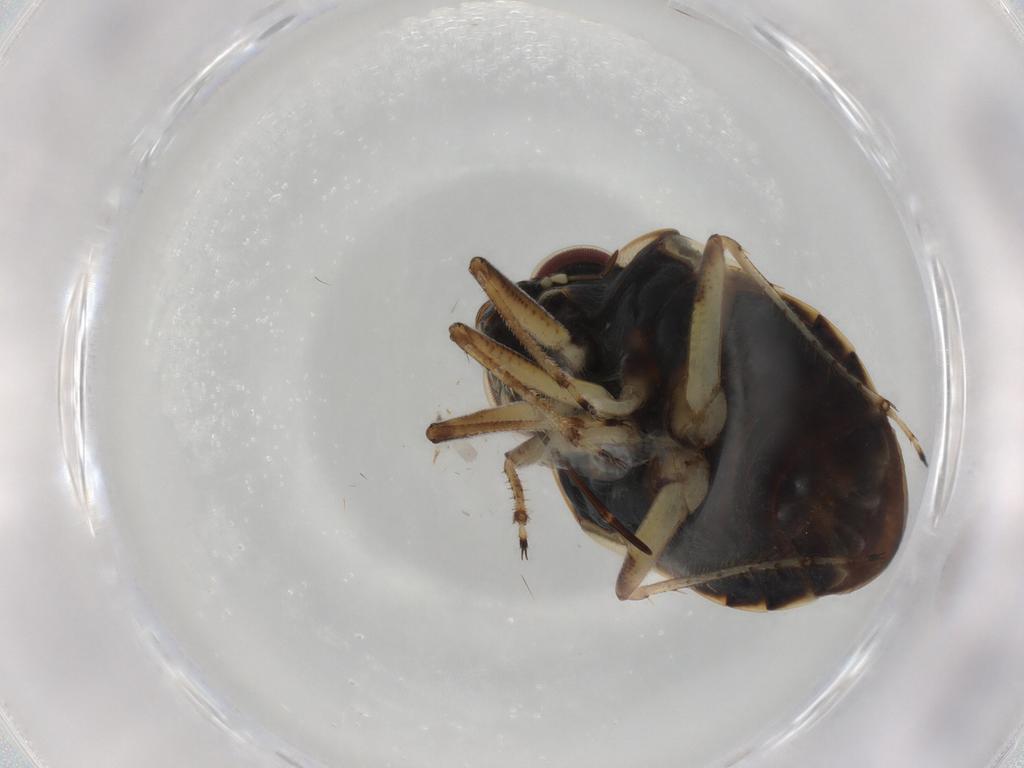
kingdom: Animalia
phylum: Arthropoda
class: Insecta
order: Hemiptera
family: Ochteridae
